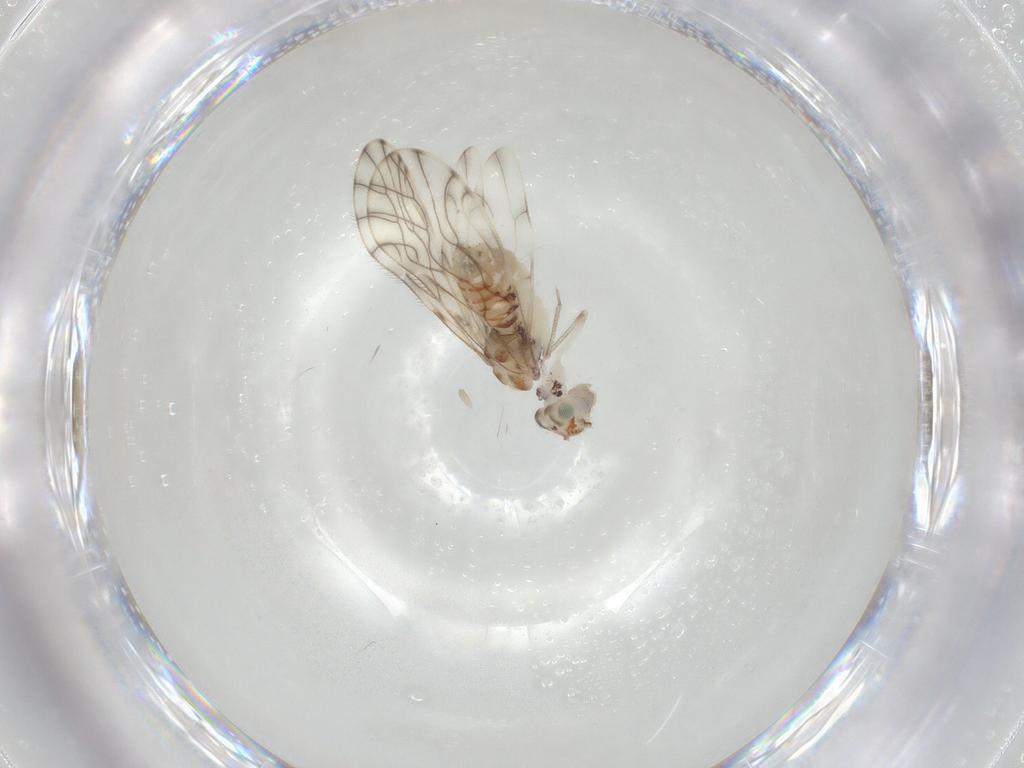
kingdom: Animalia
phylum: Arthropoda
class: Insecta
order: Psocodea
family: Philotarsidae
